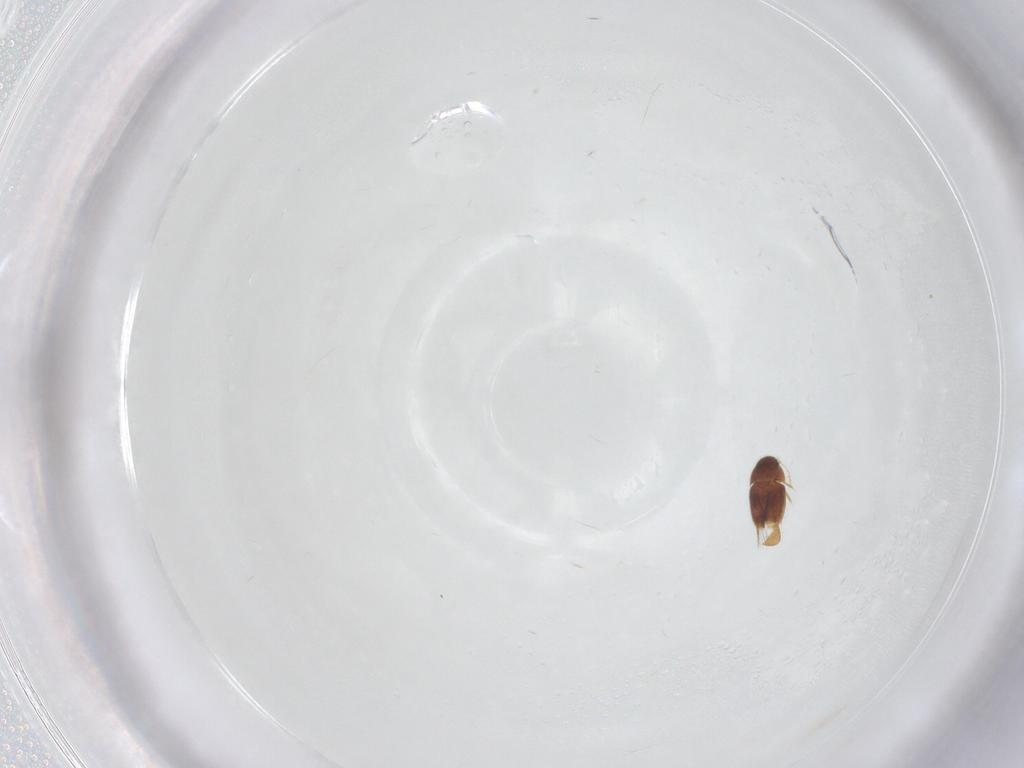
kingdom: Animalia
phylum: Arthropoda
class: Insecta
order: Coleoptera
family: Ptiliidae
